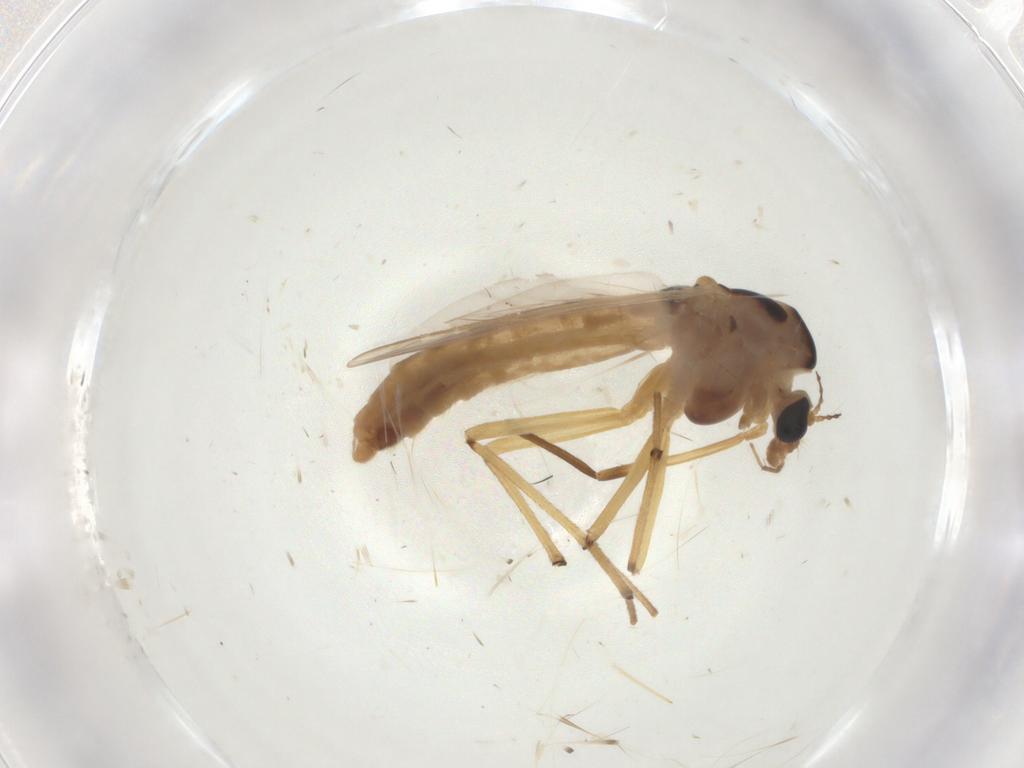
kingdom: Animalia
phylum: Arthropoda
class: Insecta
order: Diptera
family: Chironomidae
